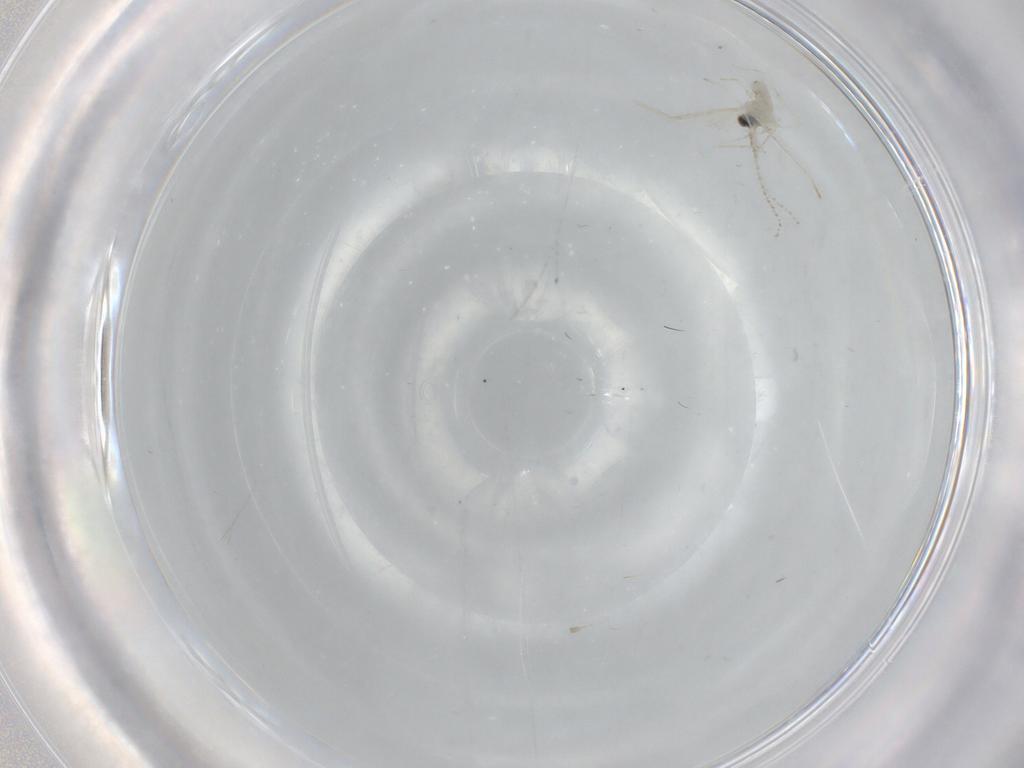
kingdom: Animalia
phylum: Arthropoda
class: Insecta
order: Diptera
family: Cecidomyiidae
